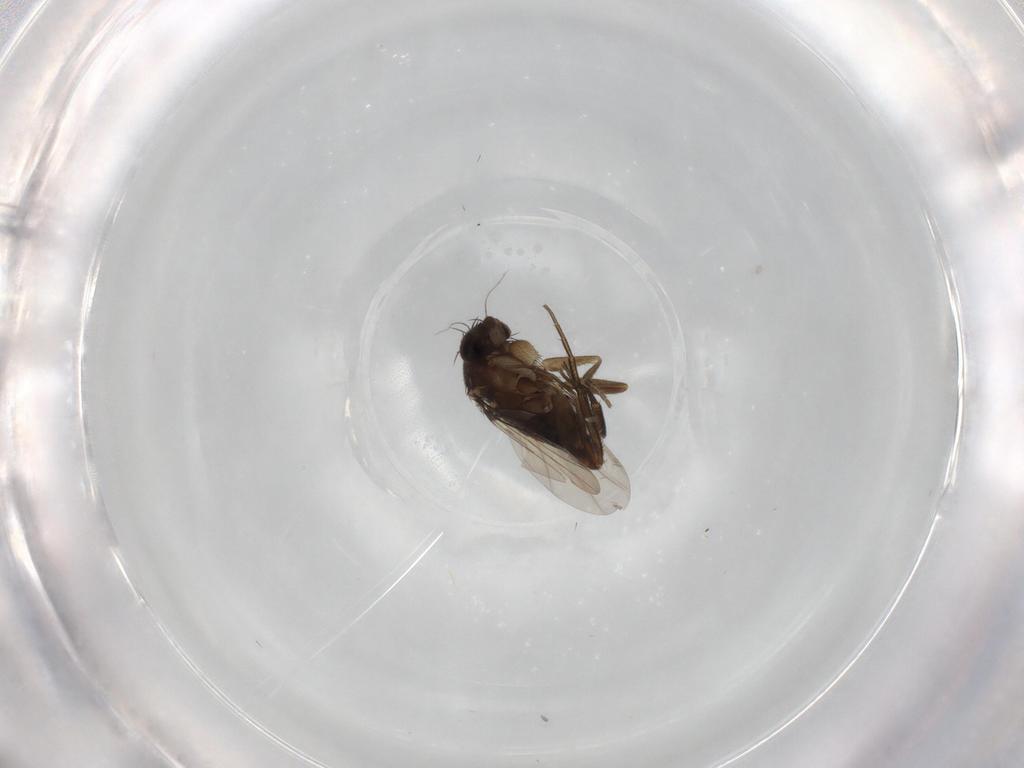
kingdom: Animalia
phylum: Arthropoda
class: Insecta
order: Diptera
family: Phoridae
